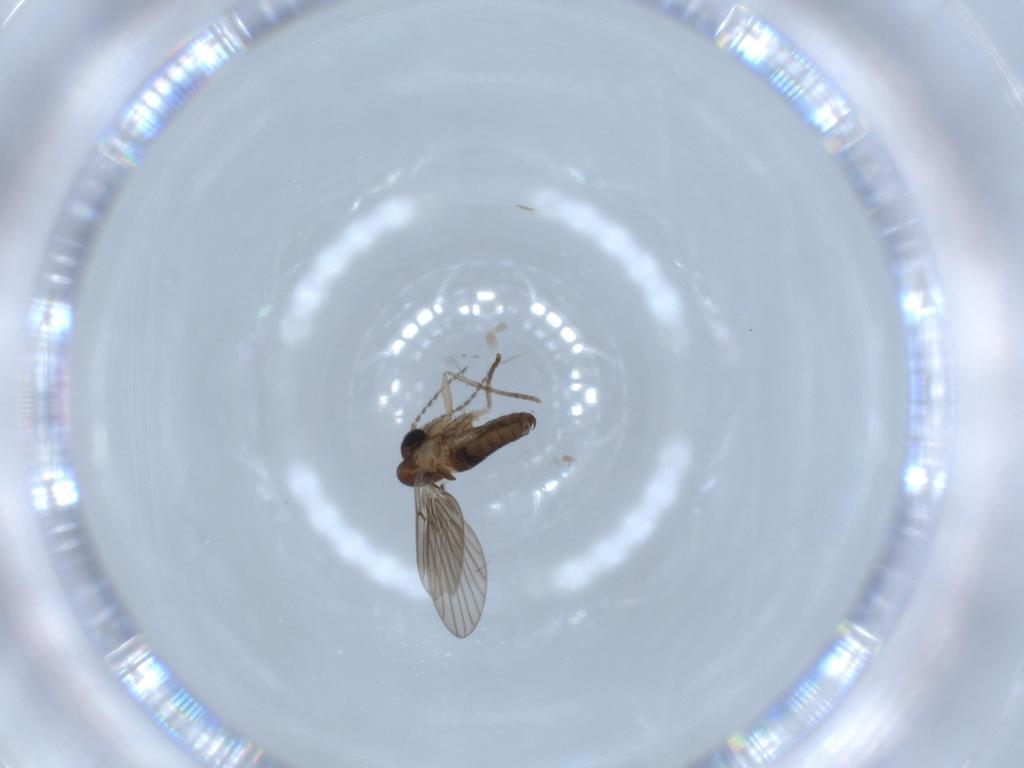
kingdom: Animalia
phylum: Arthropoda
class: Insecta
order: Diptera
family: Psychodidae
